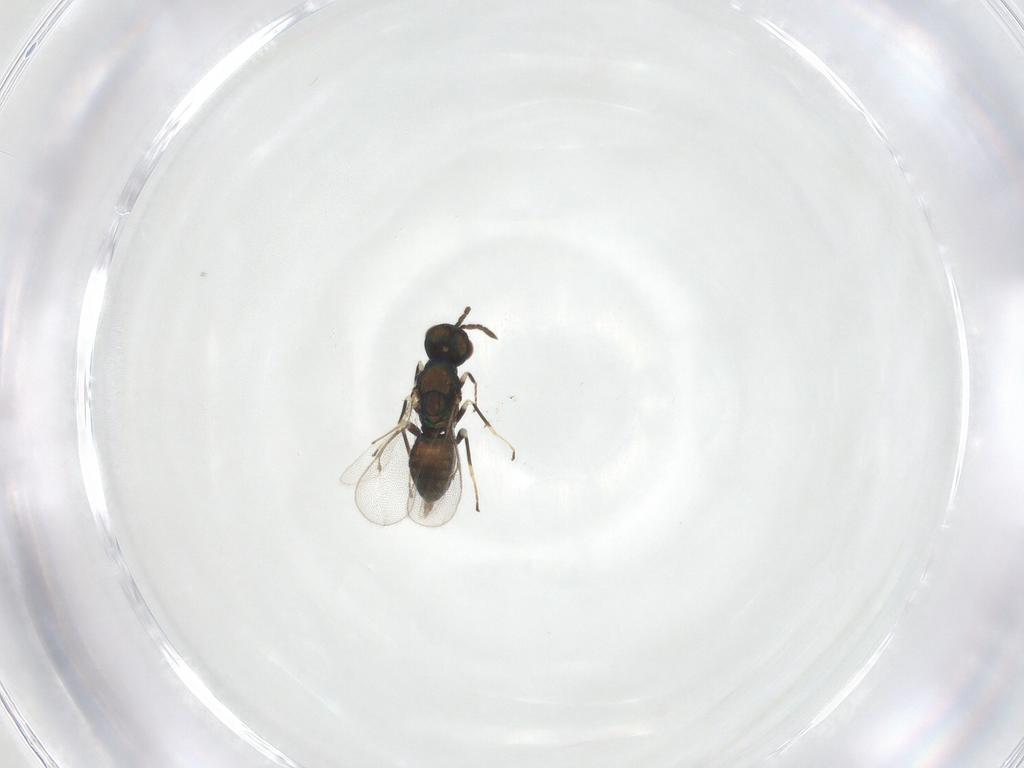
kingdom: Animalia
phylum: Arthropoda
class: Insecta
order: Hymenoptera
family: Eulophidae
